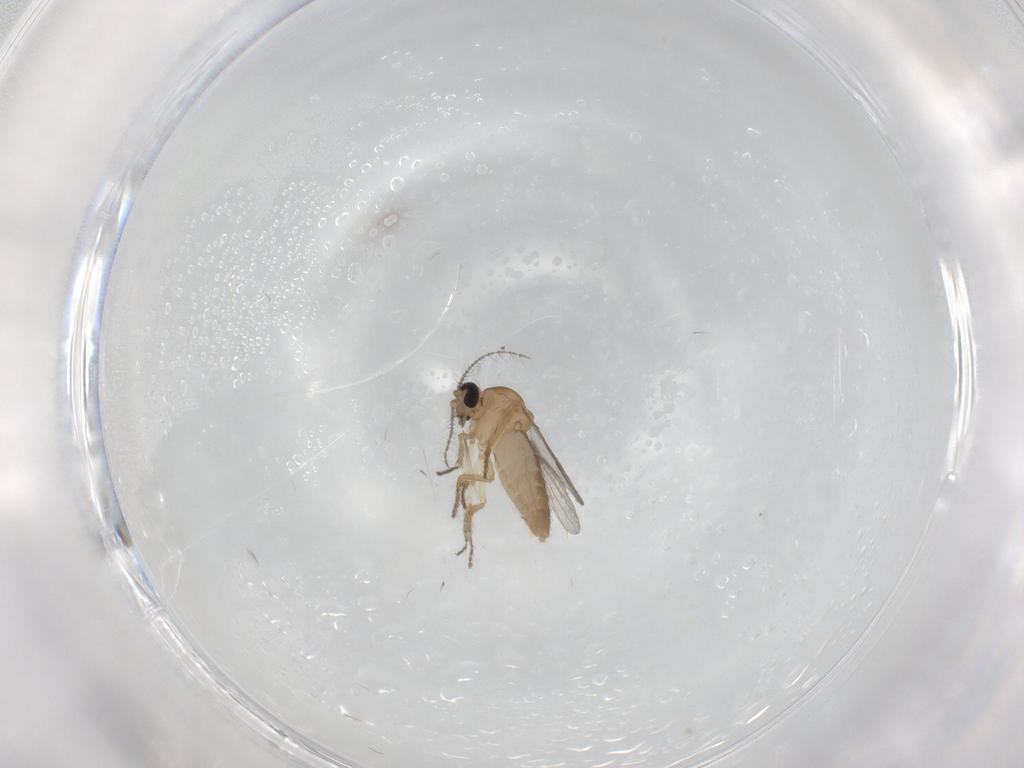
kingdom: Animalia
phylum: Arthropoda
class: Insecta
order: Diptera
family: Ceratopogonidae
